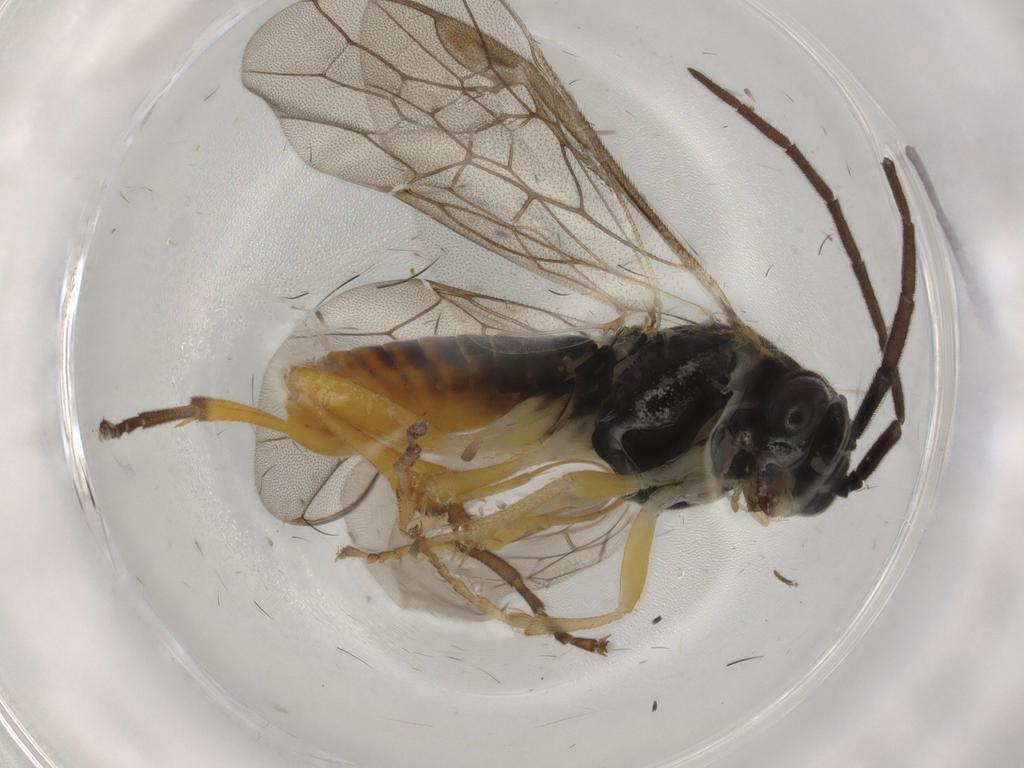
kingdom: Animalia
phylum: Arthropoda
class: Insecta
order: Hymenoptera
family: Tenthredinidae
